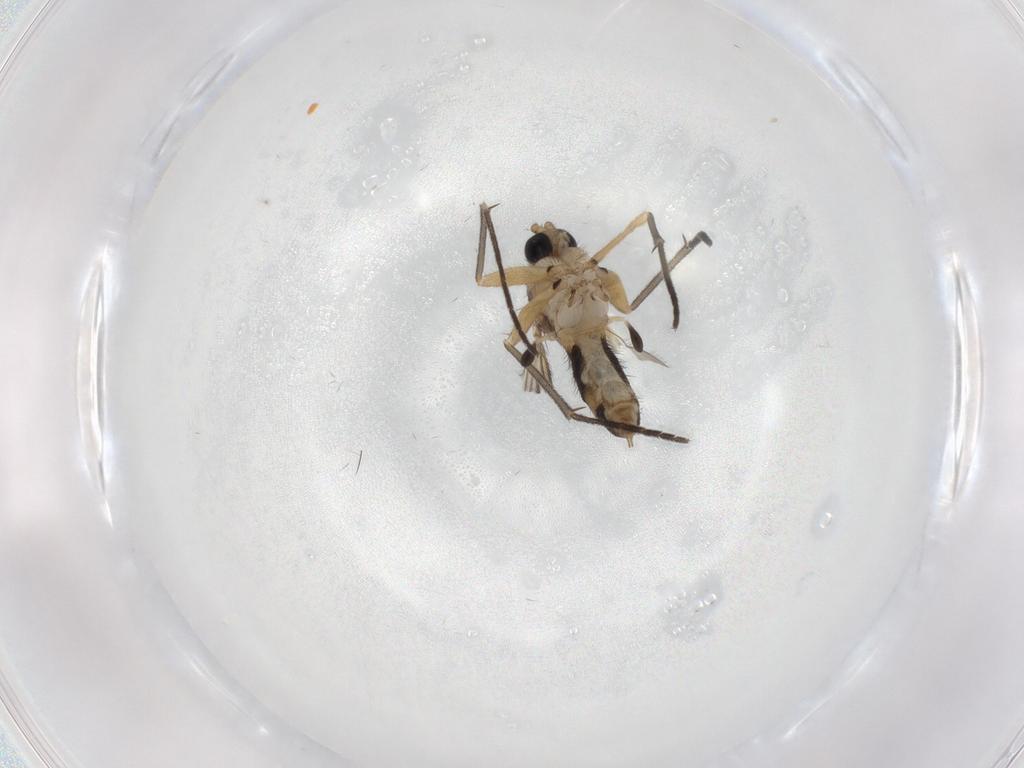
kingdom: Animalia
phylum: Arthropoda
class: Insecta
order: Diptera
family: Sciaridae
